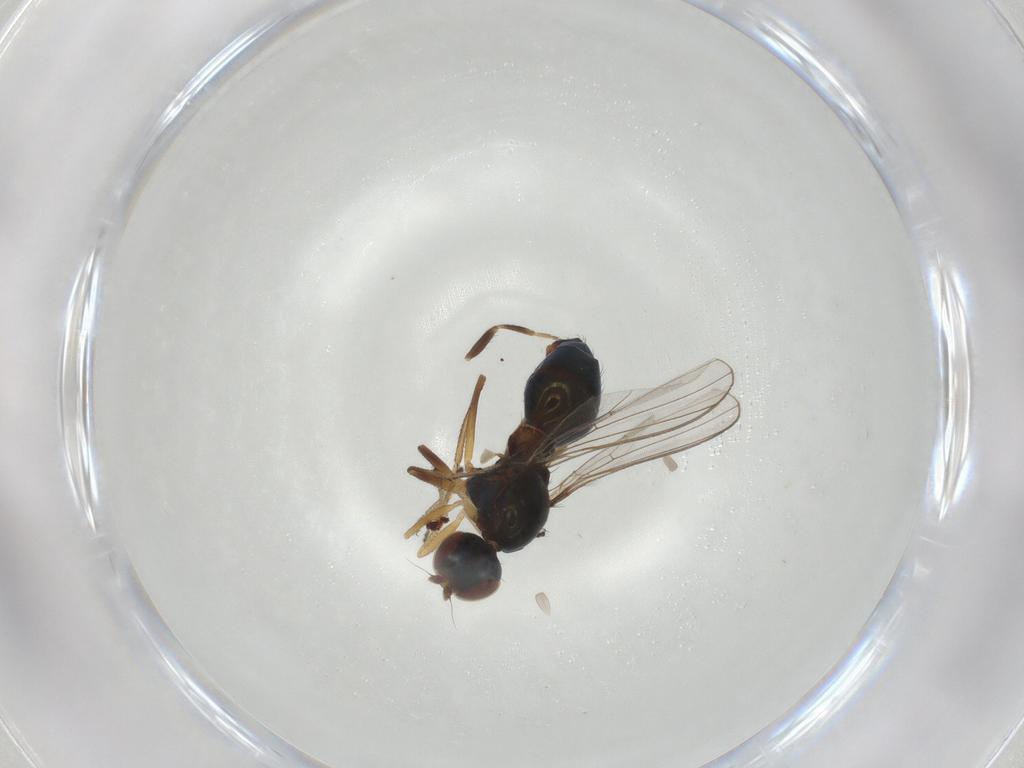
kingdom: Animalia
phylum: Arthropoda
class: Insecta
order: Diptera
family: Sepsidae
